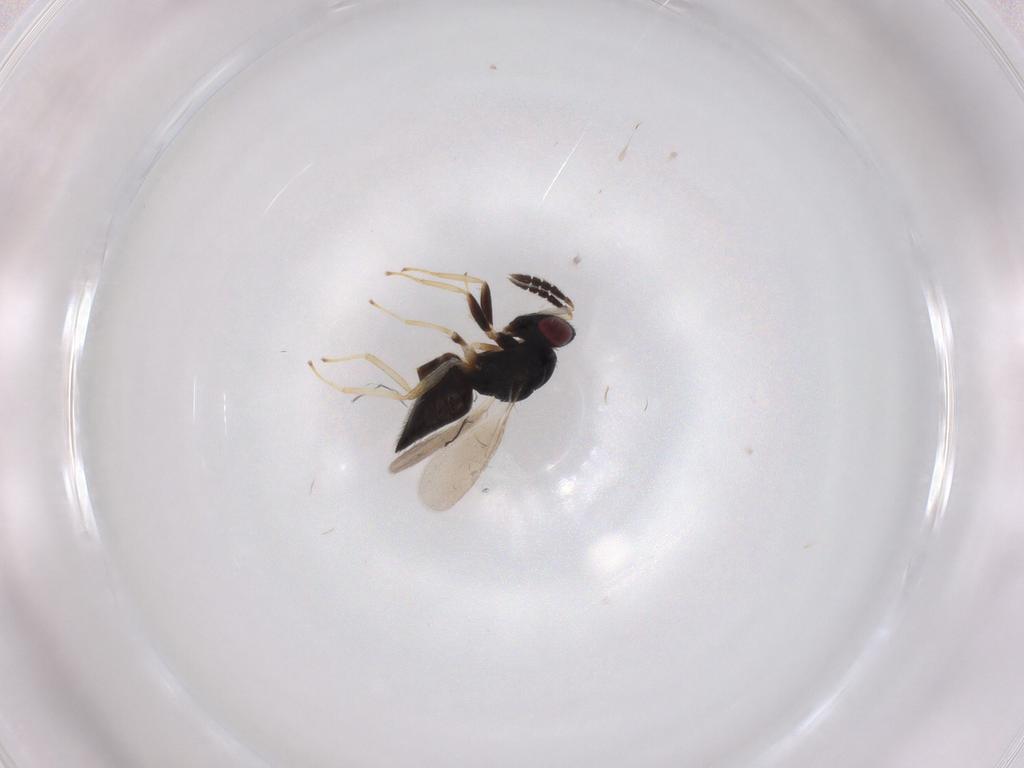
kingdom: Animalia
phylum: Arthropoda
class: Insecta
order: Hymenoptera
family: Eulophidae
